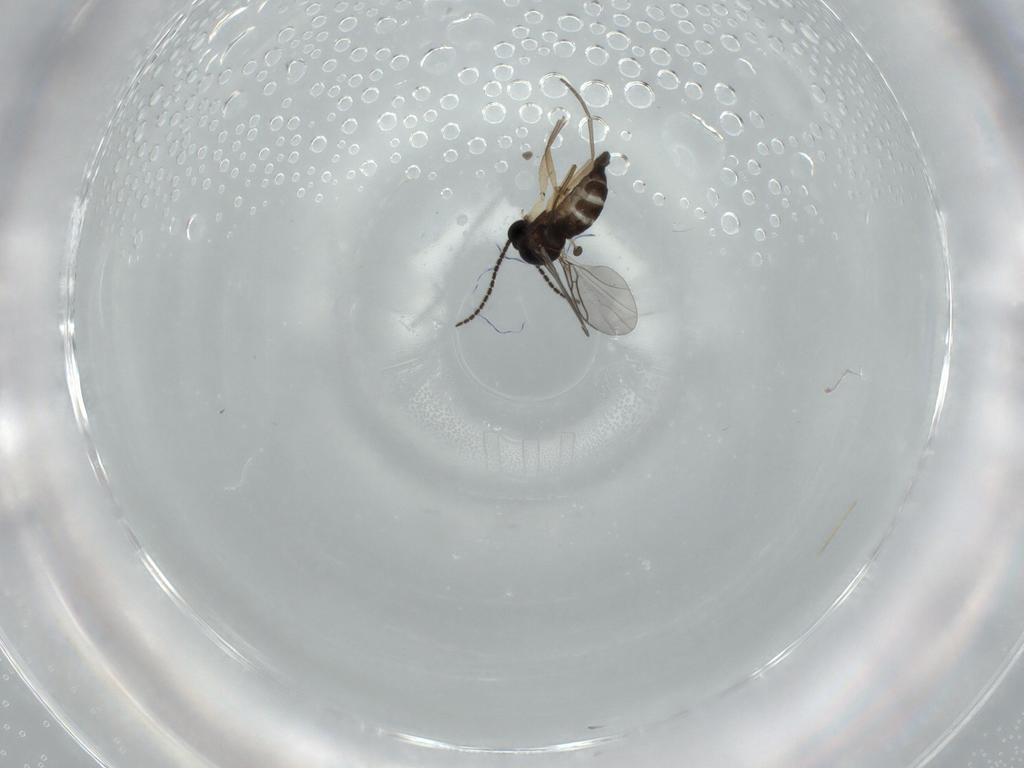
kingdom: Animalia
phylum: Arthropoda
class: Insecta
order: Diptera
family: Sciaridae
